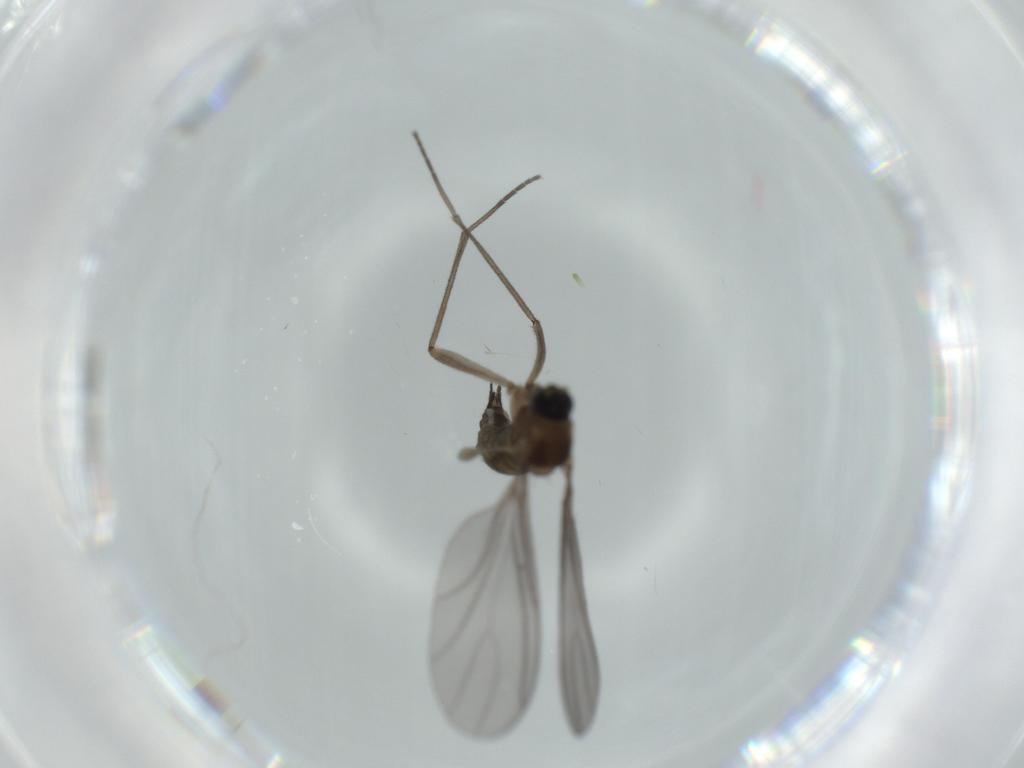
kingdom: Animalia
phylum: Arthropoda
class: Insecta
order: Diptera
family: Psychodidae
